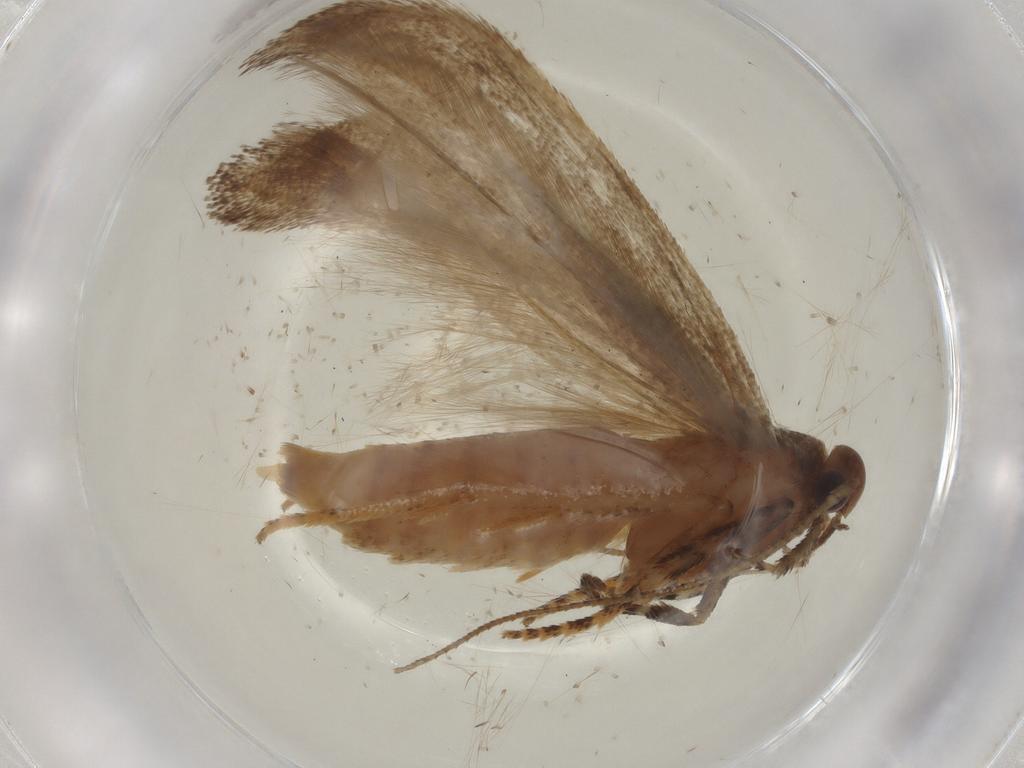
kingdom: Animalia
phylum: Arthropoda
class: Insecta
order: Lepidoptera
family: Gelechiidae
